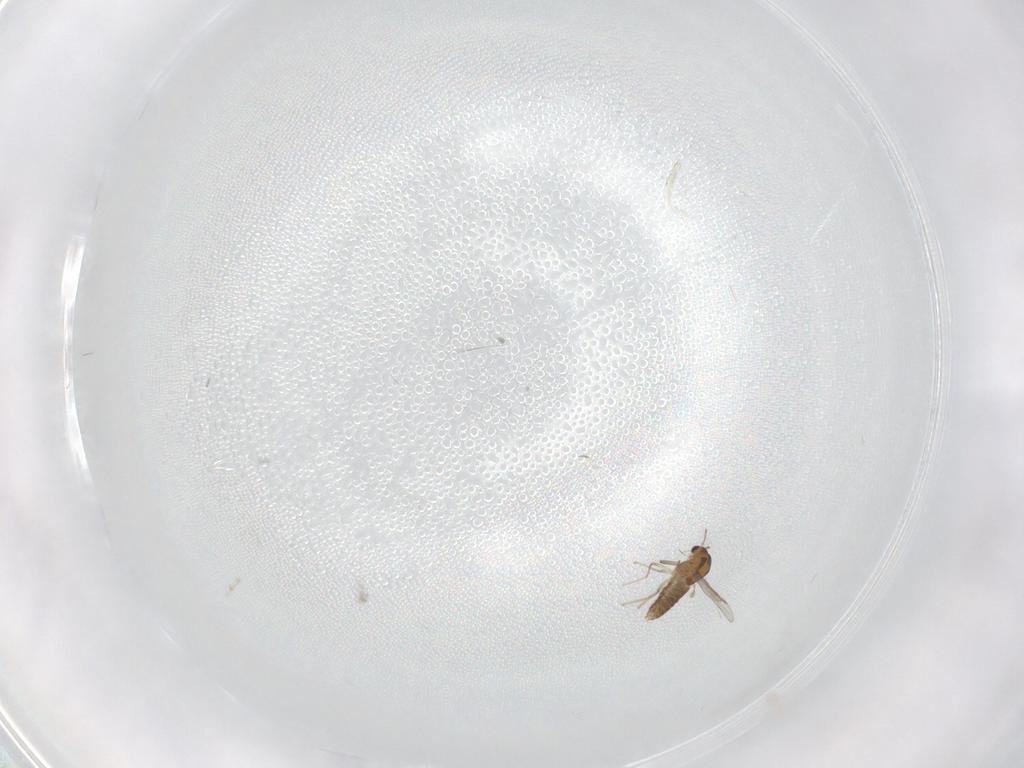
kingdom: Animalia
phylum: Arthropoda
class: Insecta
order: Diptera
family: Chironomidae
